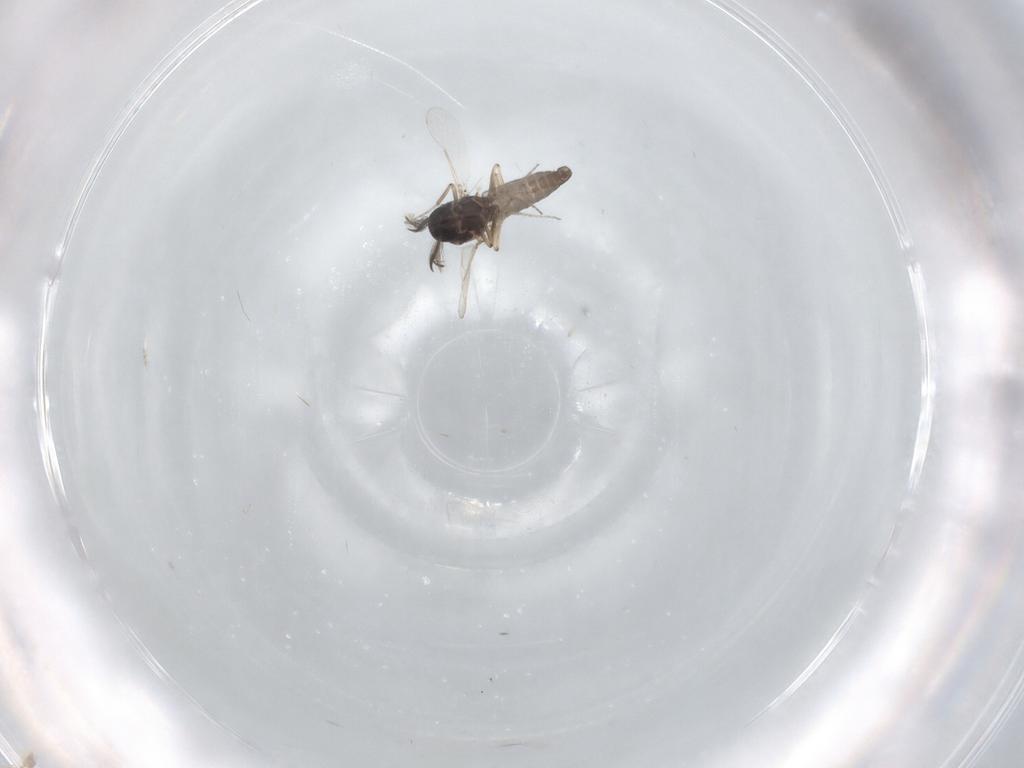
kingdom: Animalia
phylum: Arthropoda
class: Insecta
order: Diptera
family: Ceratopogonidae
